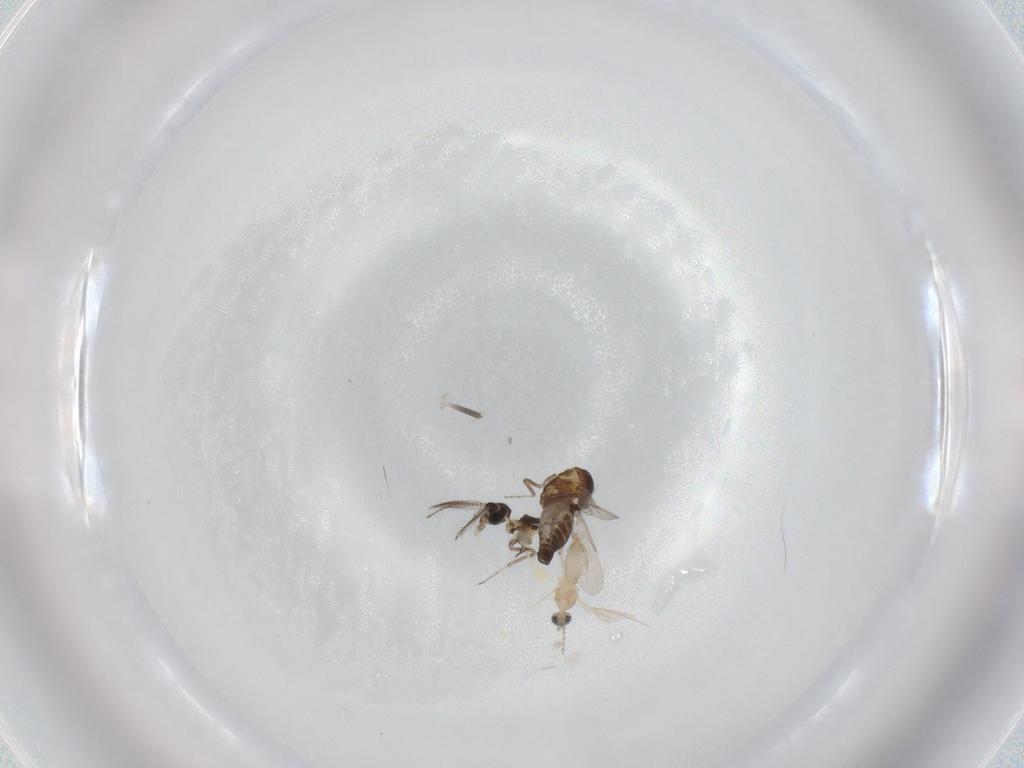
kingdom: Animalia
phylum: Arthropoda
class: Insecta
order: Diptera
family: Ceratopogonidae
